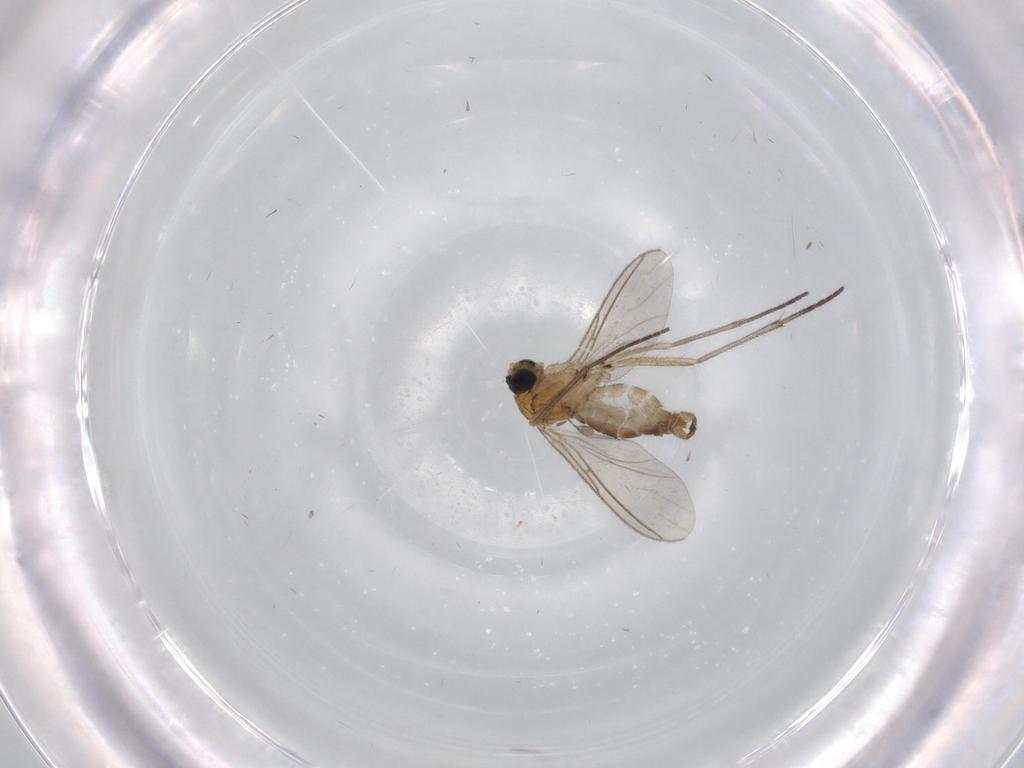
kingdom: Animalia
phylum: Arthropoda
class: Insecta
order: Diptera
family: Sciaridae
